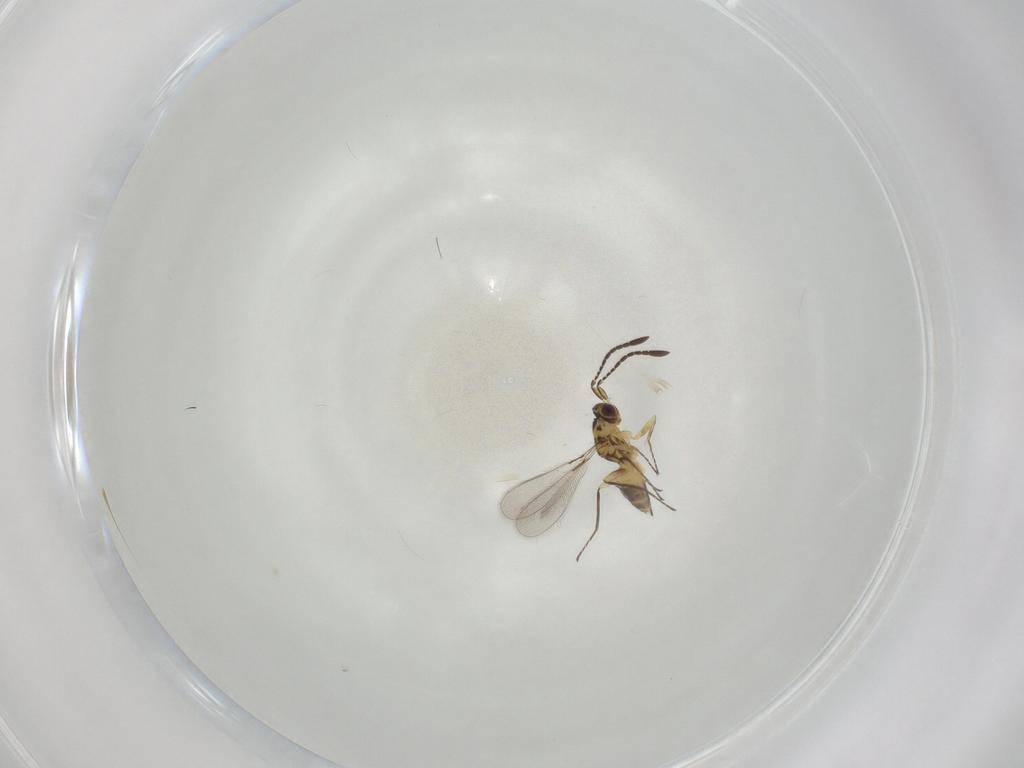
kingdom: Animalia
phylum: Arthropoda
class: Insecta
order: Hymenoptera
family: Mymaridae
